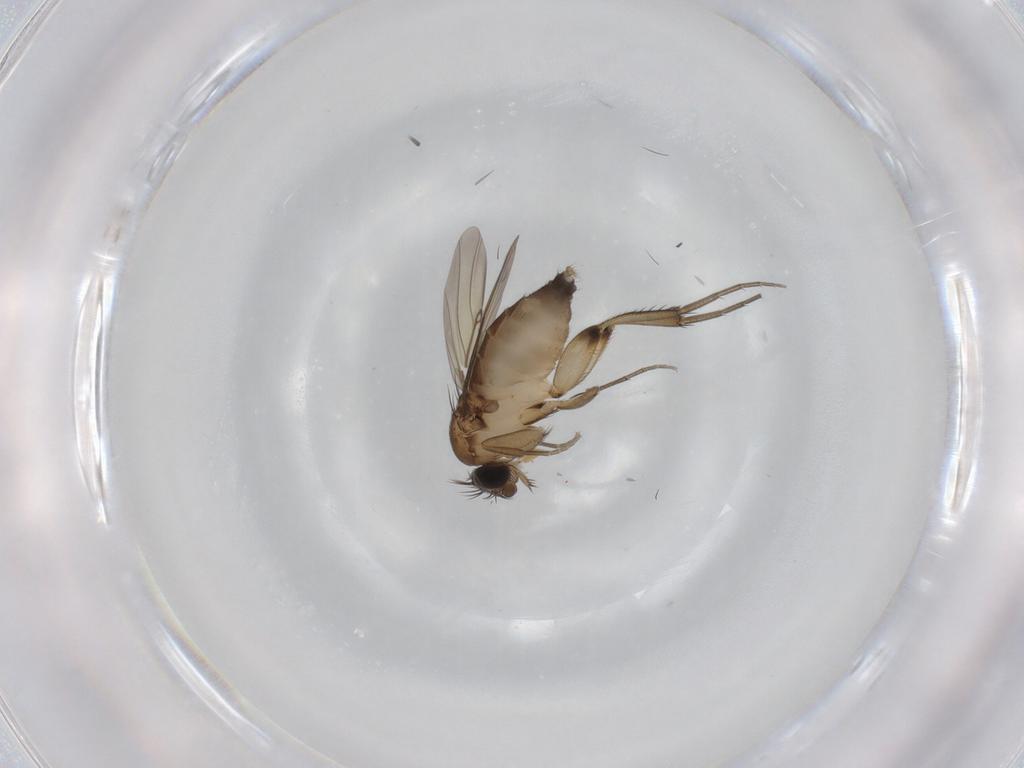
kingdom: Animalia
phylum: Arthropoda
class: Insecta
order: Diptera
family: Phoridae
